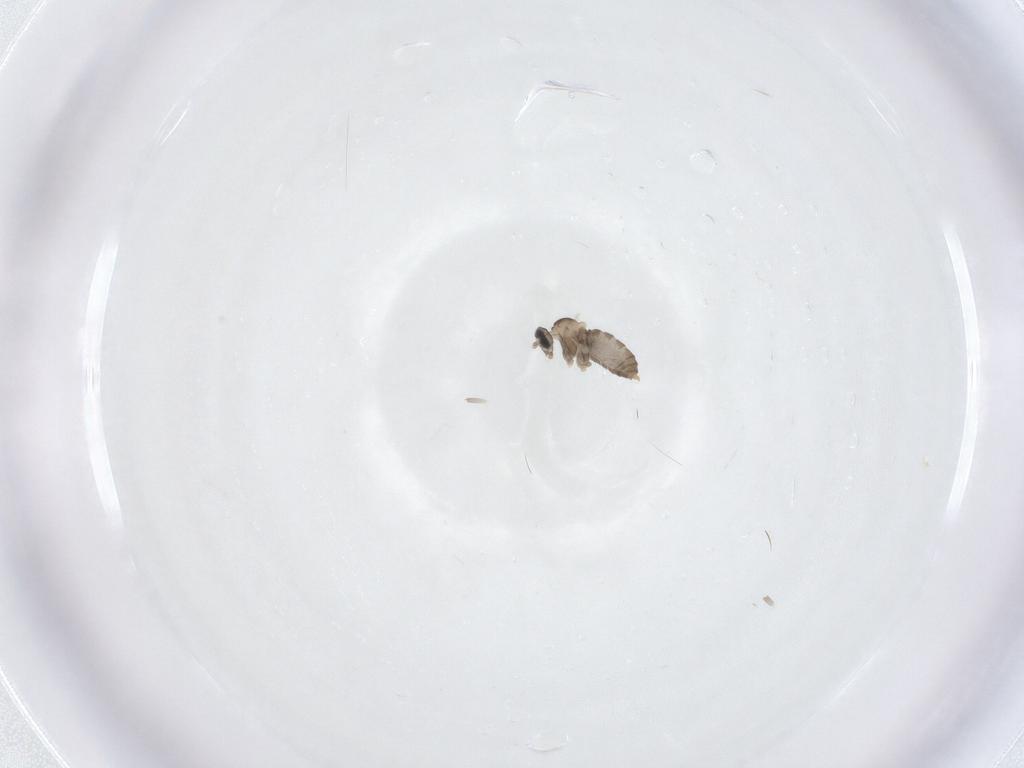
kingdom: Animalia
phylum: Arthropoda
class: Insecta
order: Diptera
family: Cecidomyiidae
